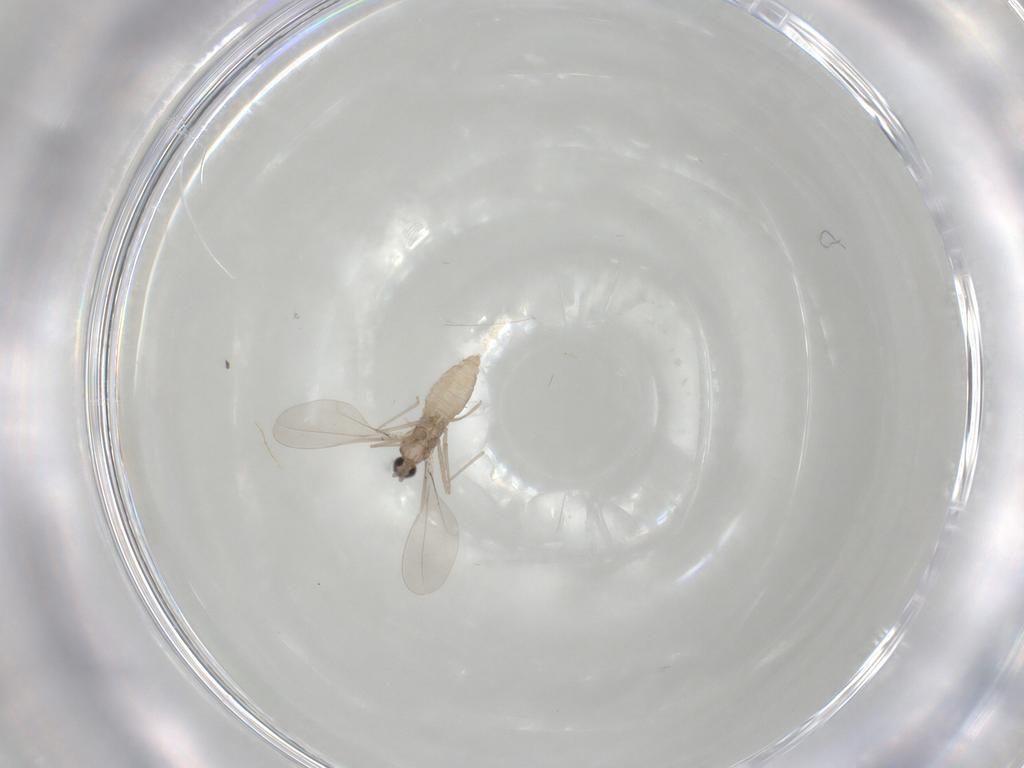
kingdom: Animalia
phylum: Arthropoda
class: Insecta
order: Diptera
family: Cecidomyiidae
